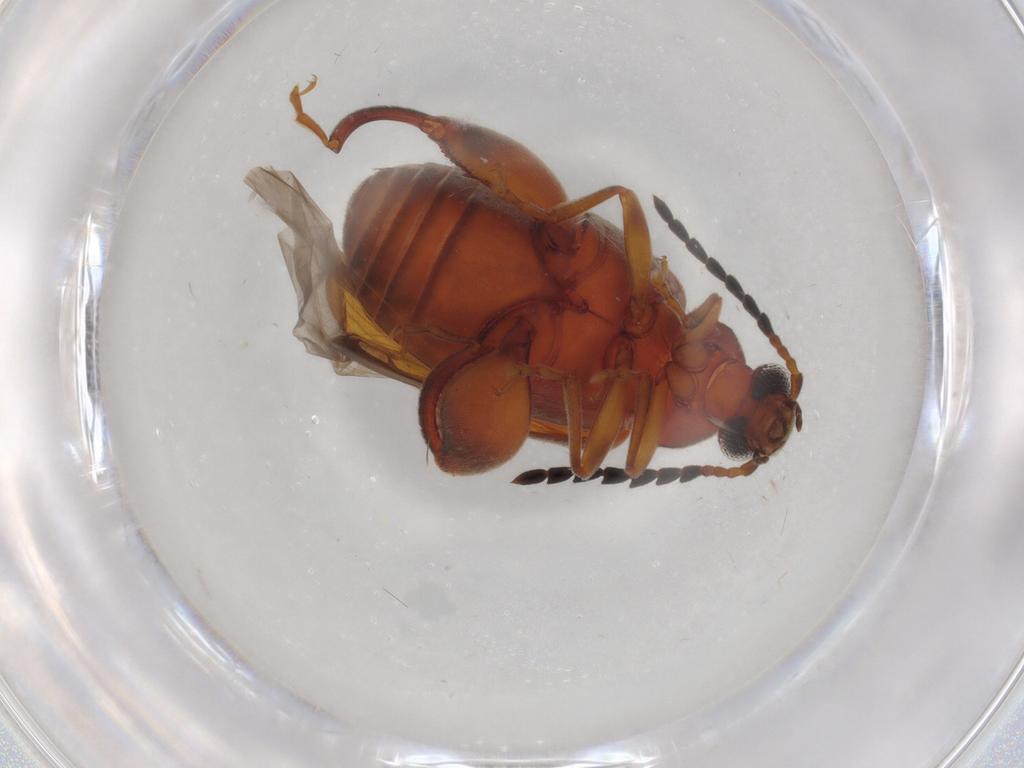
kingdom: Animalia
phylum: Arthropoda
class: Insecta
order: Coleoptera
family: Chrysomelidae
